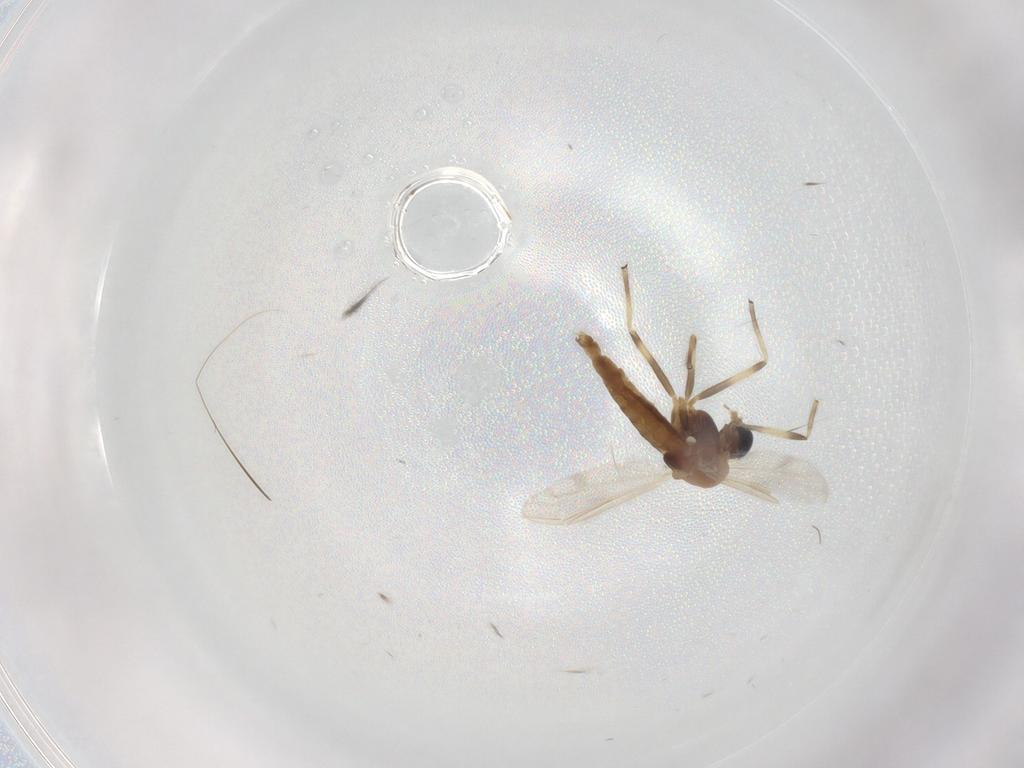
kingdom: Animalia
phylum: Arthropoda
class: Insecta
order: Diptera
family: Chironomidae
